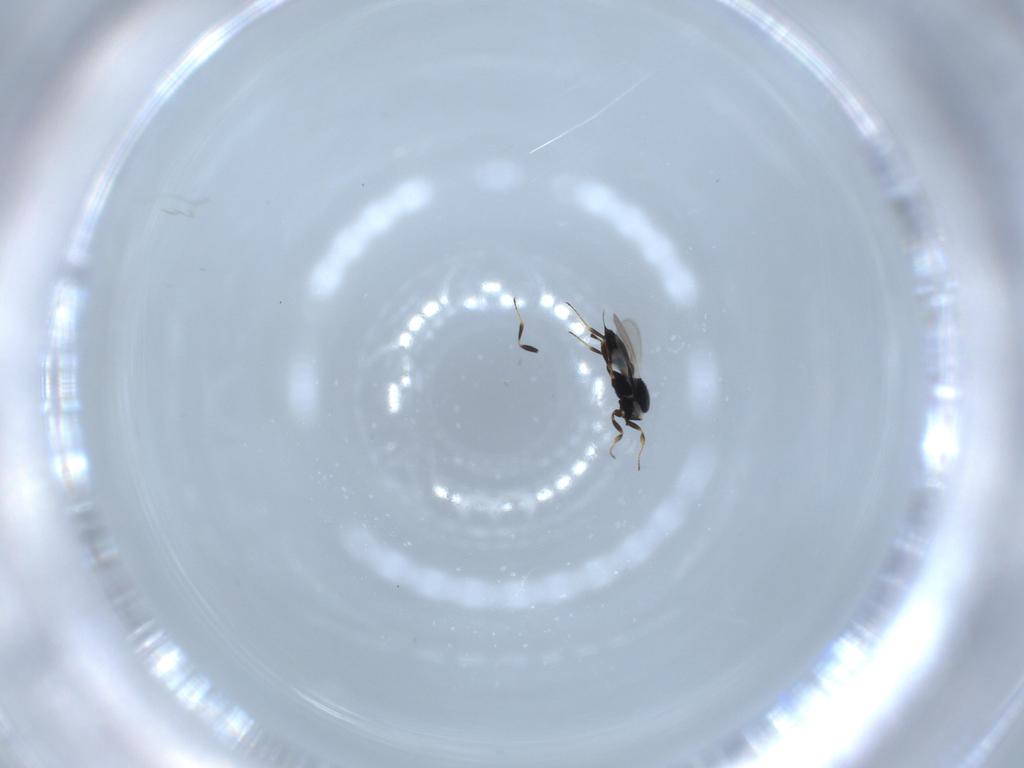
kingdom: Animalia
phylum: Arthropoda
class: Insecta
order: Hymenoptera
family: Scelionidae
